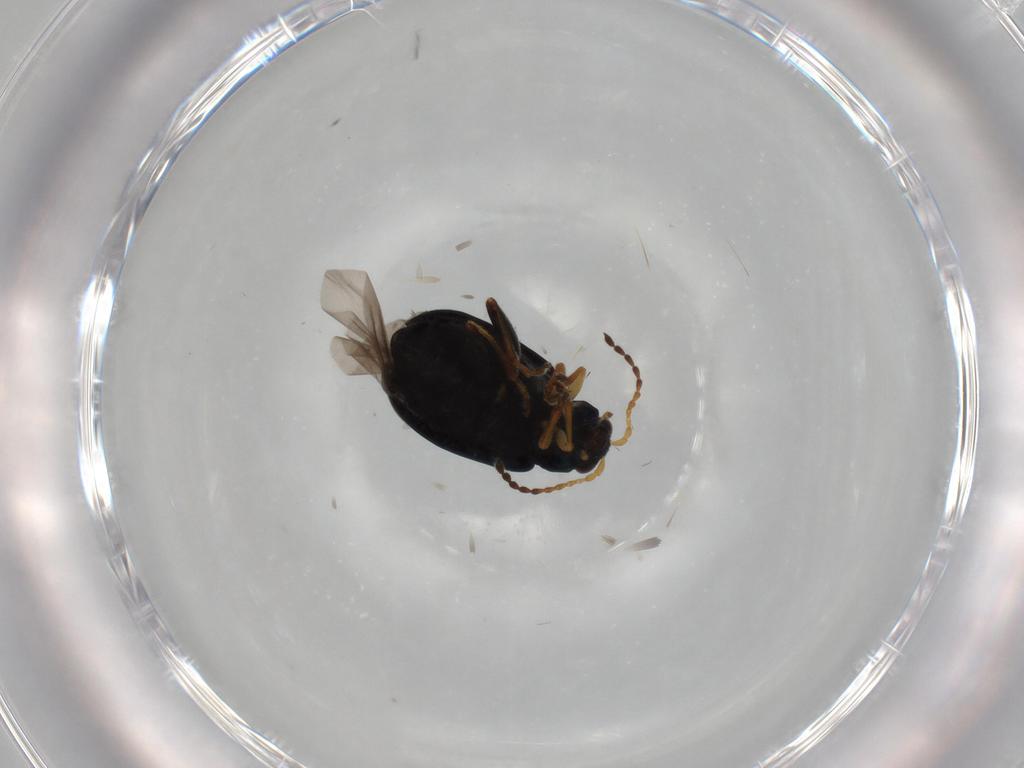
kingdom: Animalia
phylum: Arthropoda
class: Insecta
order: Coleoptera
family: Chrysomelidae
